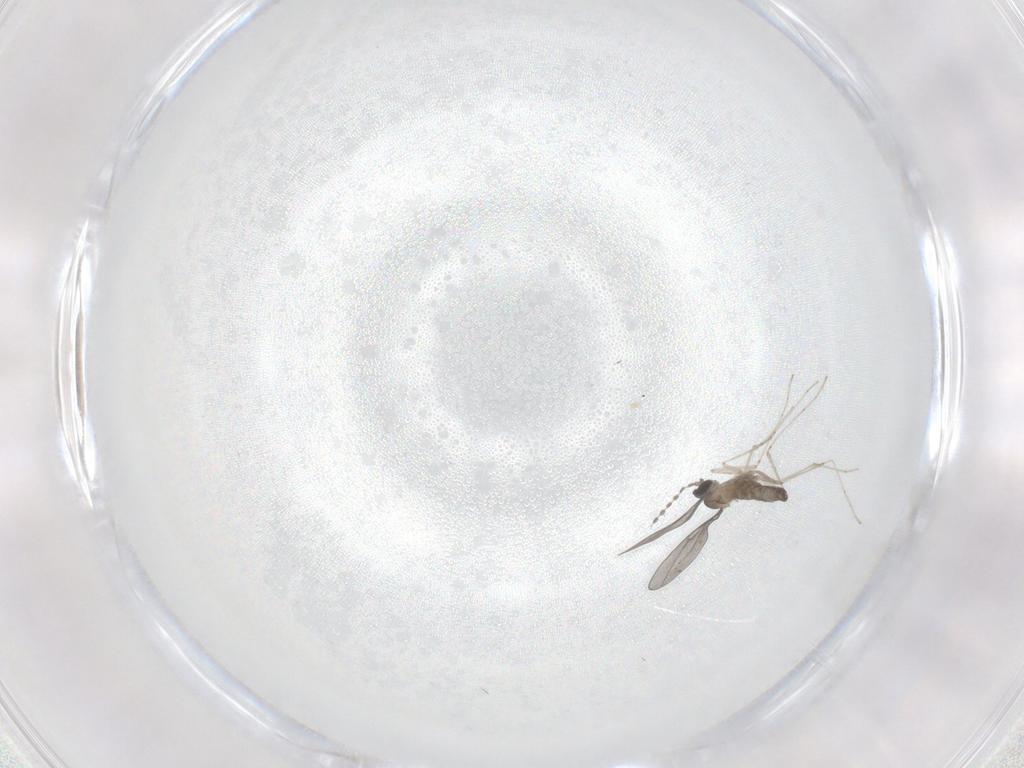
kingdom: Animalia
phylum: Arthropoda
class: Insecta
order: Diptera
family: Cecidomyiidae
